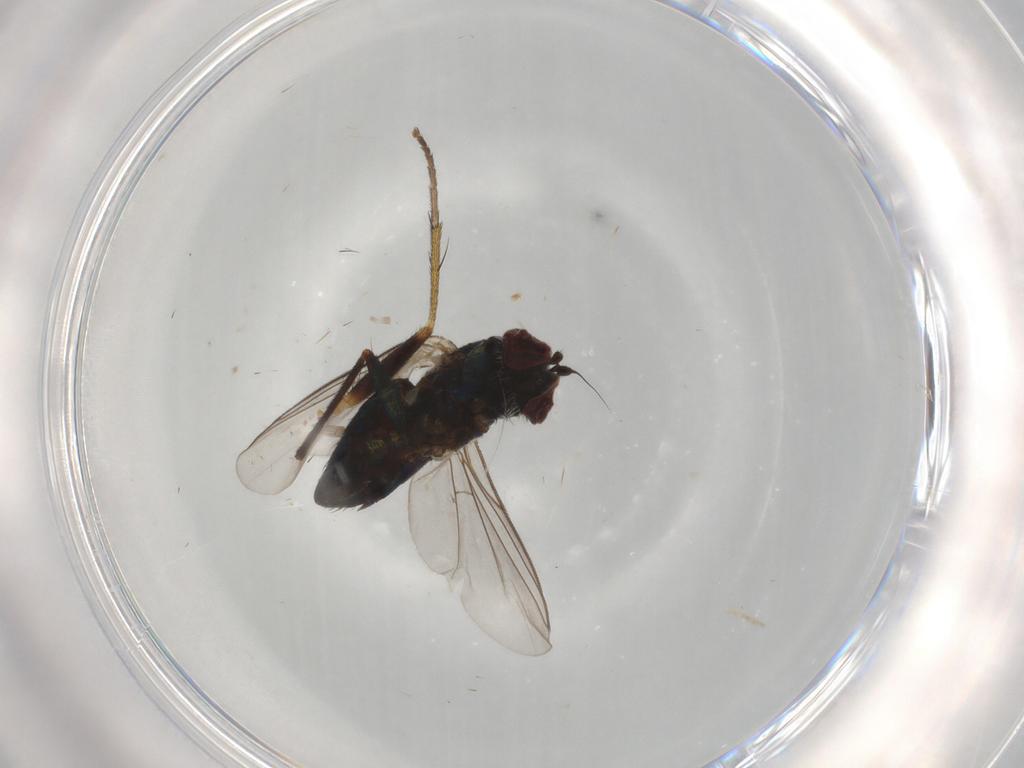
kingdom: Animalia
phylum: Arthropoda
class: Insecta
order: Diptera
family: Dolichopodidae
